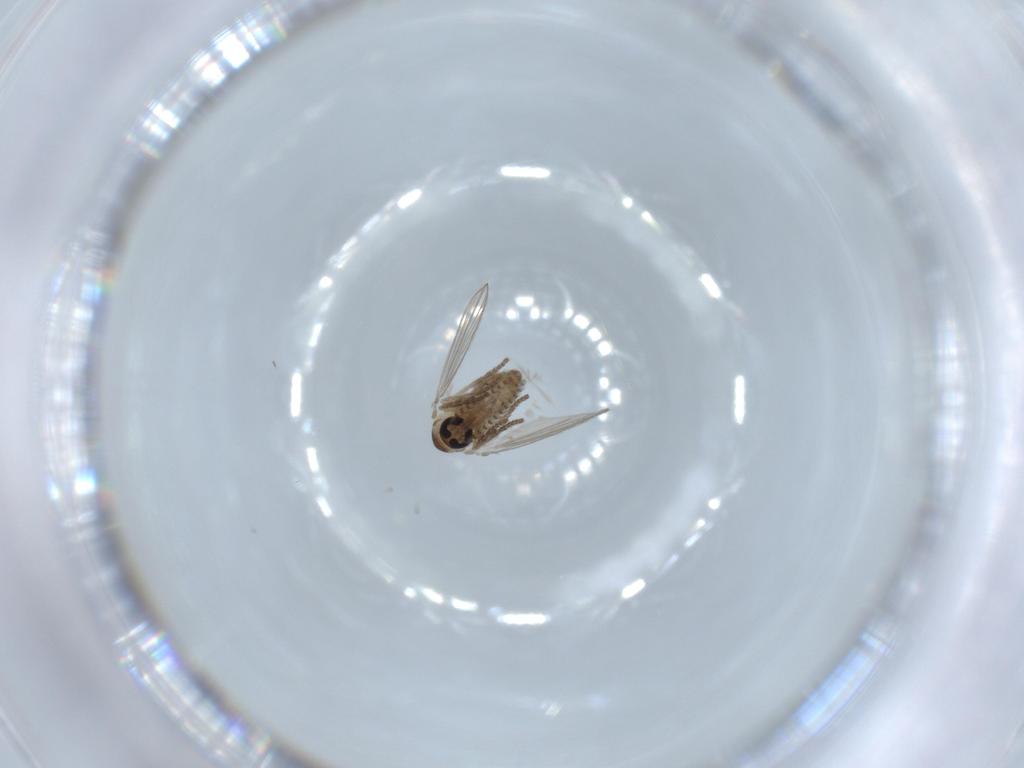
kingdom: Animalia
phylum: Arthropoda
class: Insecta
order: Diptera
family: Psychodidae
